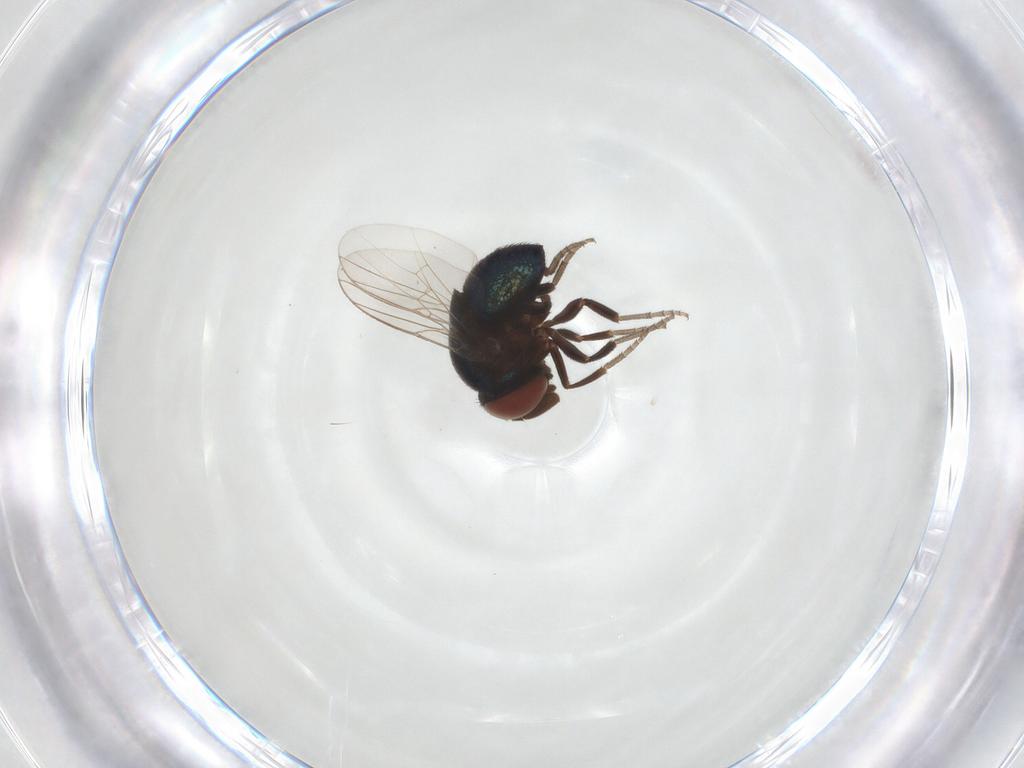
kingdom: Animalia
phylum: Arthropoda
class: Insecta
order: Diptera
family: Cryptochetidae
